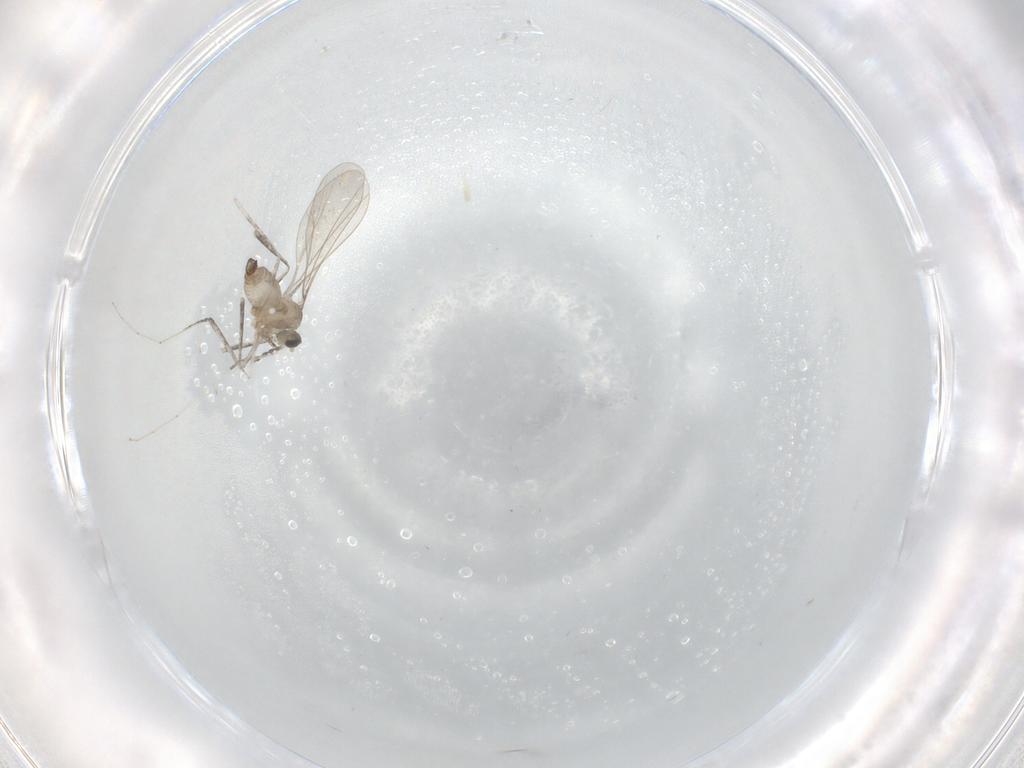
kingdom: Animalia
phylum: Arthropoda
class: Insecta
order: Diptera
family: Cecidomyiidae
